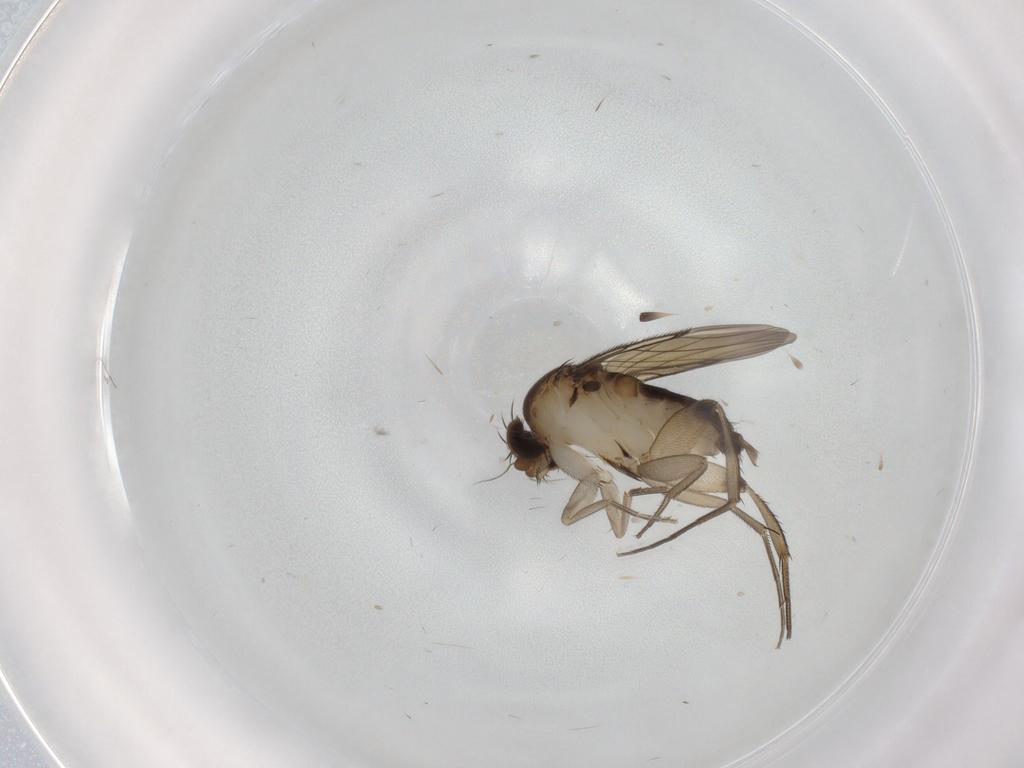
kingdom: Animalia
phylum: Arthropoda
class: Insecta
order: Diptera
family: Phoridae
